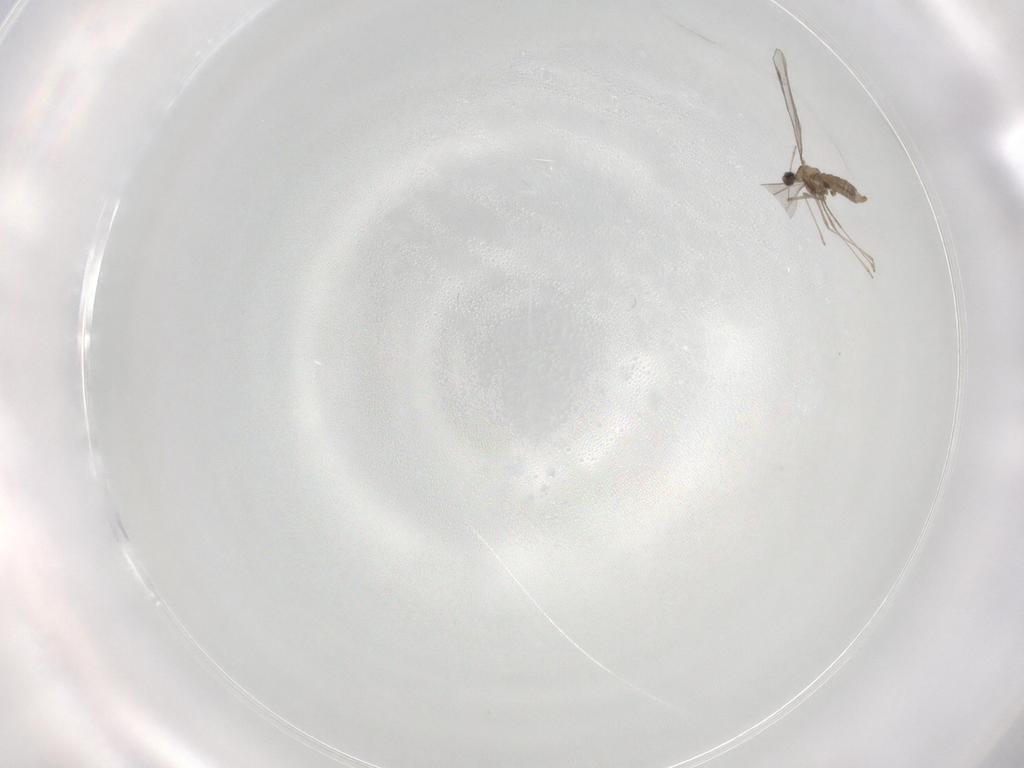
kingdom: Animalia
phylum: Arthropoda
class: Insecta
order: Diptera
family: Cecidomyiidae
